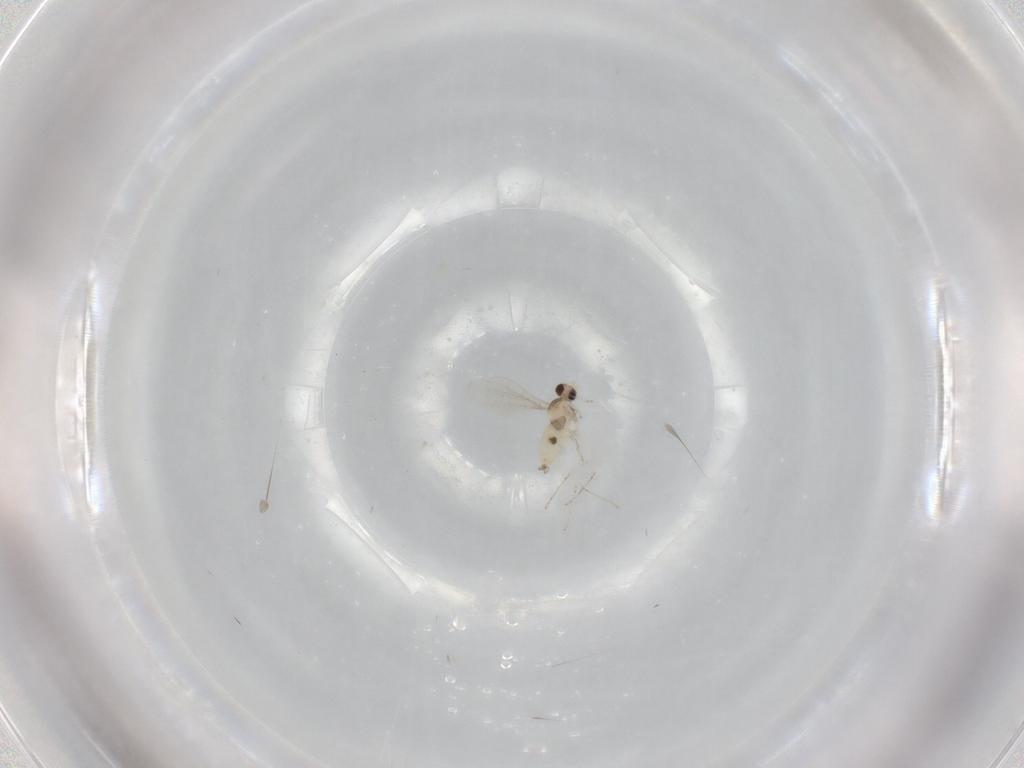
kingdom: Animalia
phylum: Arthropoda
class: Insecta
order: Diptera
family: Cecidomyiidae
